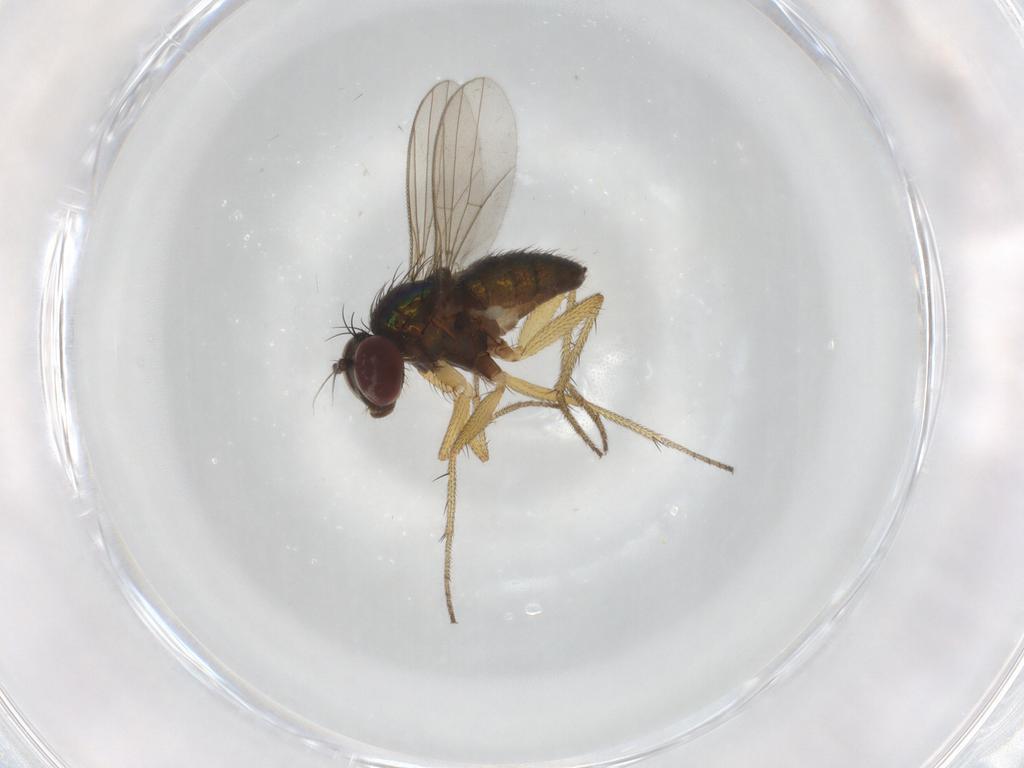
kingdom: Animalia
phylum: Arthropoda
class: Insecta
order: Diptera
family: Dolichopodidae
